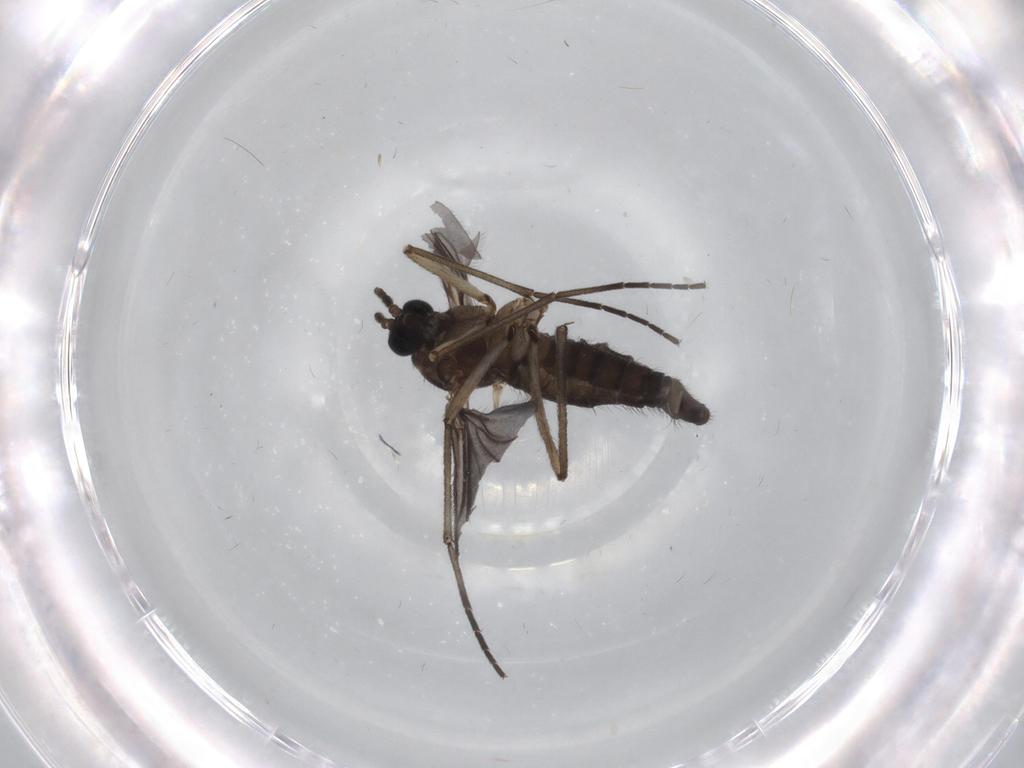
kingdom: Animalia
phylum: Arthropoda
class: Insecta
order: Diptera
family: Sciaridae
